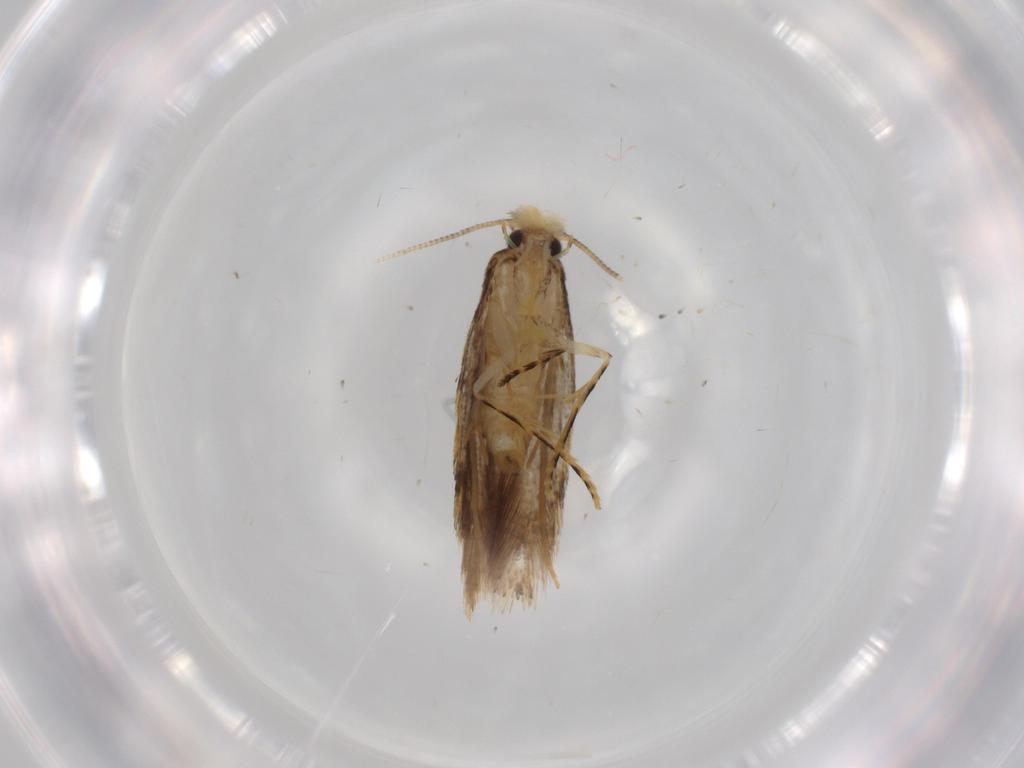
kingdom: Animalia
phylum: Arthropoda
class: Insecta
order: Lepidoptera
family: Tineidae
